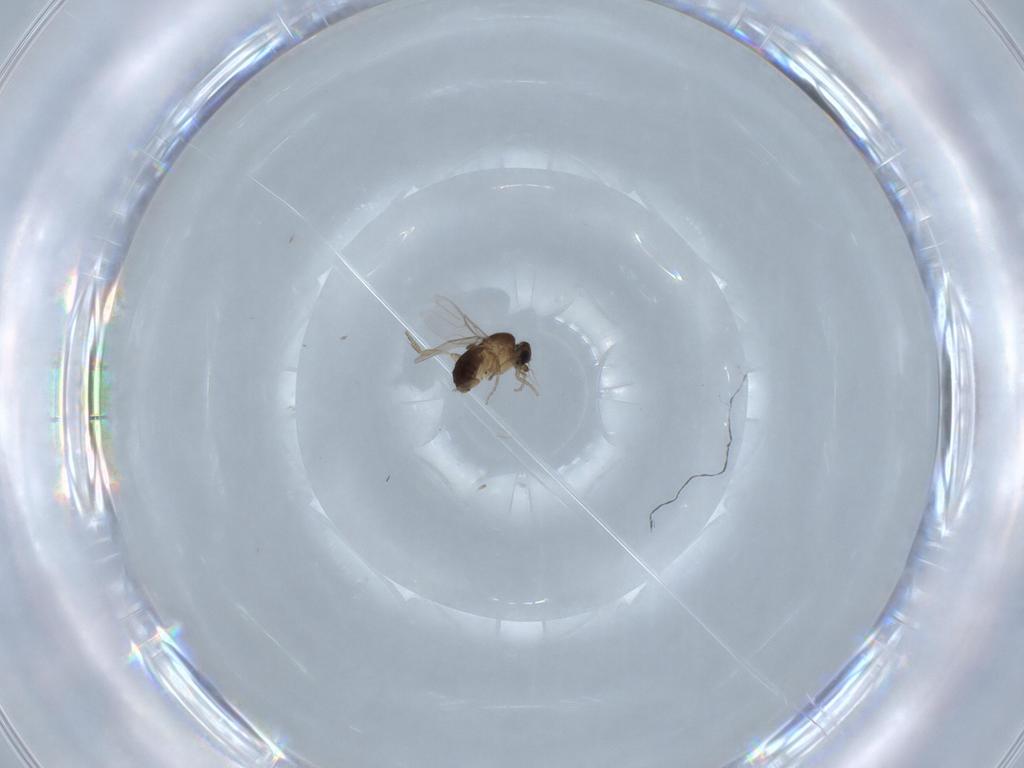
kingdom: Animalia
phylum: Arthropoda
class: Insecta
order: Diptera
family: Phoridae
